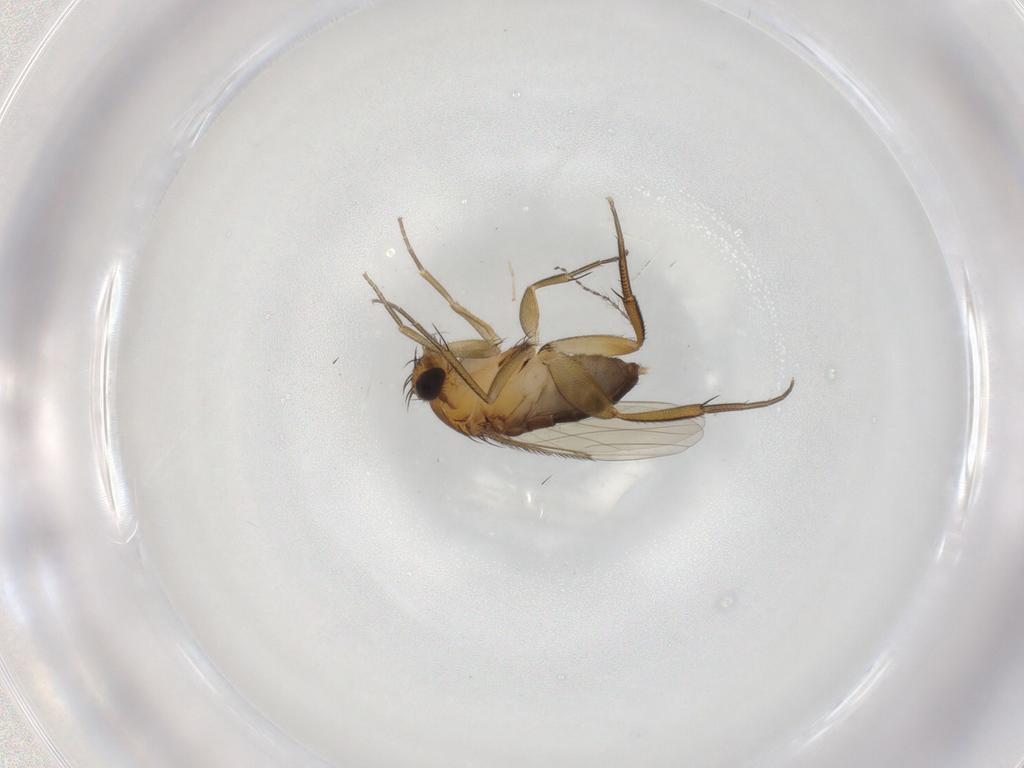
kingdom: Animalia
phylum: Arthropoda
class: Insecta
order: Diptera
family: Phoridae
